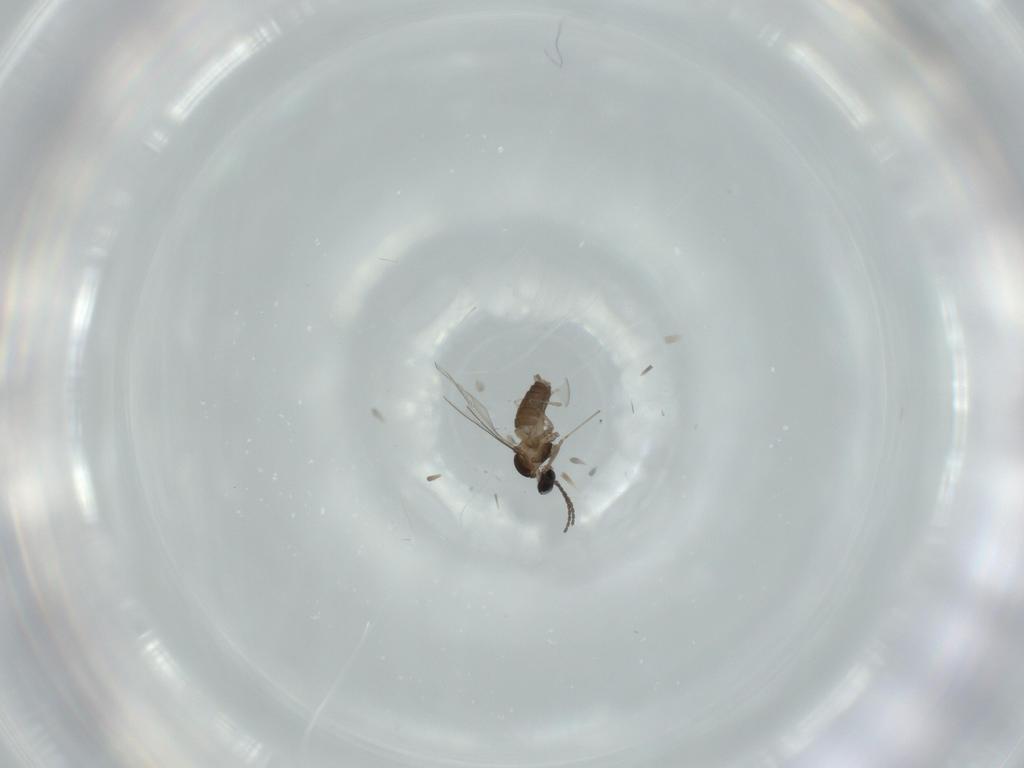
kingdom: Animalia
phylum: Arthropoda
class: Insecta
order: Diptera
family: Cecidomyiidae
